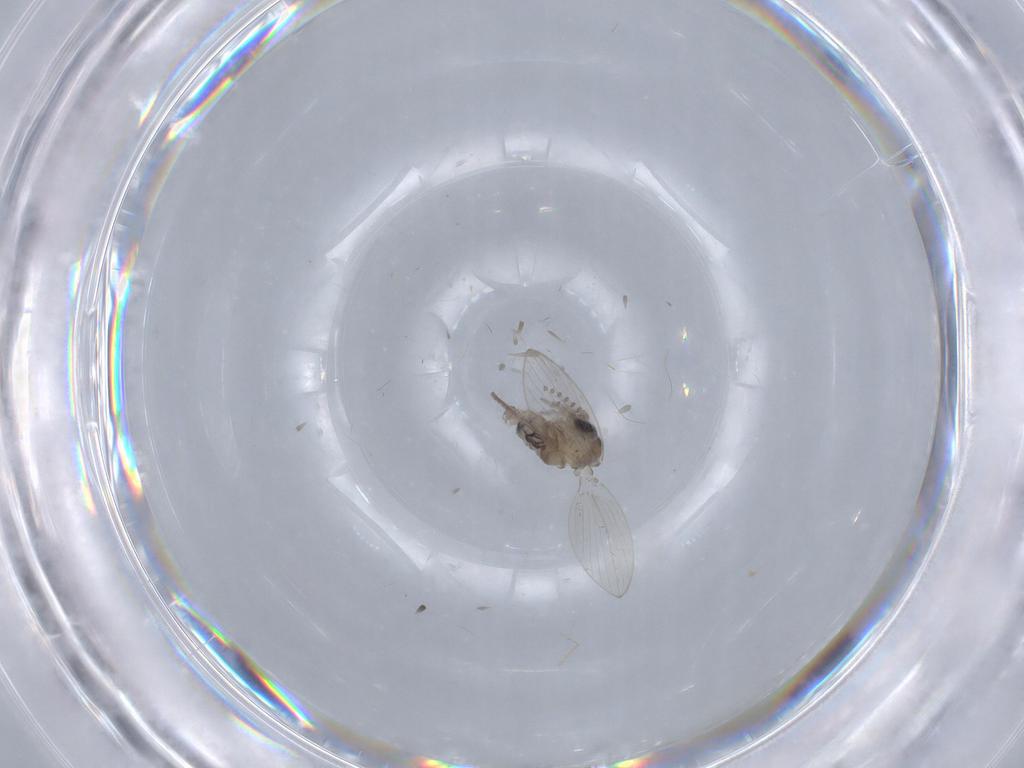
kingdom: Animalia
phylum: Arthropoda
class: Insecta
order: Diptera
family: Psychodidae
